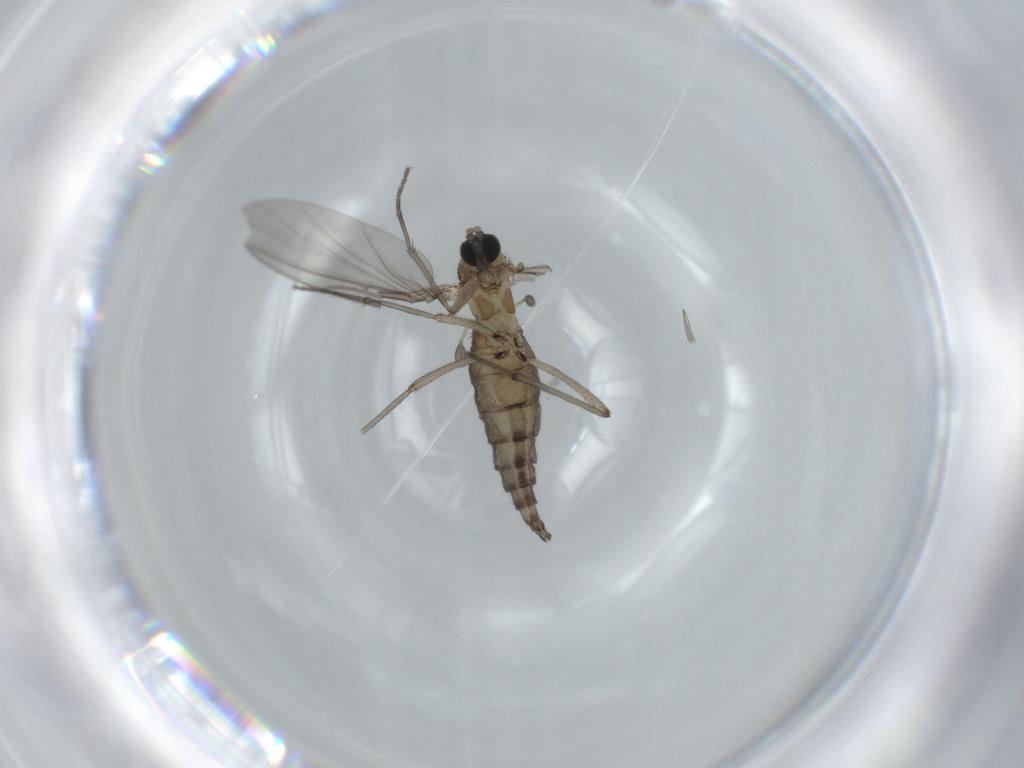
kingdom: Animalia
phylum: Arthropoda
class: Insecta
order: Diptera
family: Sciaridae
